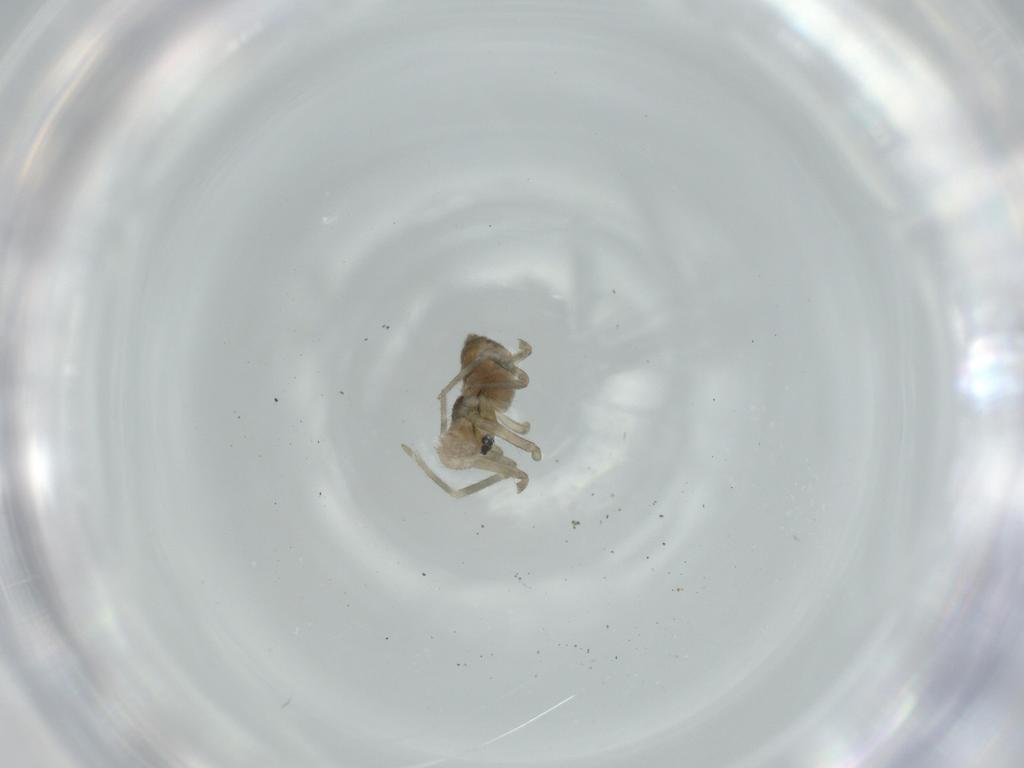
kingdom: Animalia
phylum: Arthropoda
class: Arachnida
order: Araneae
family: Linyphiidae
